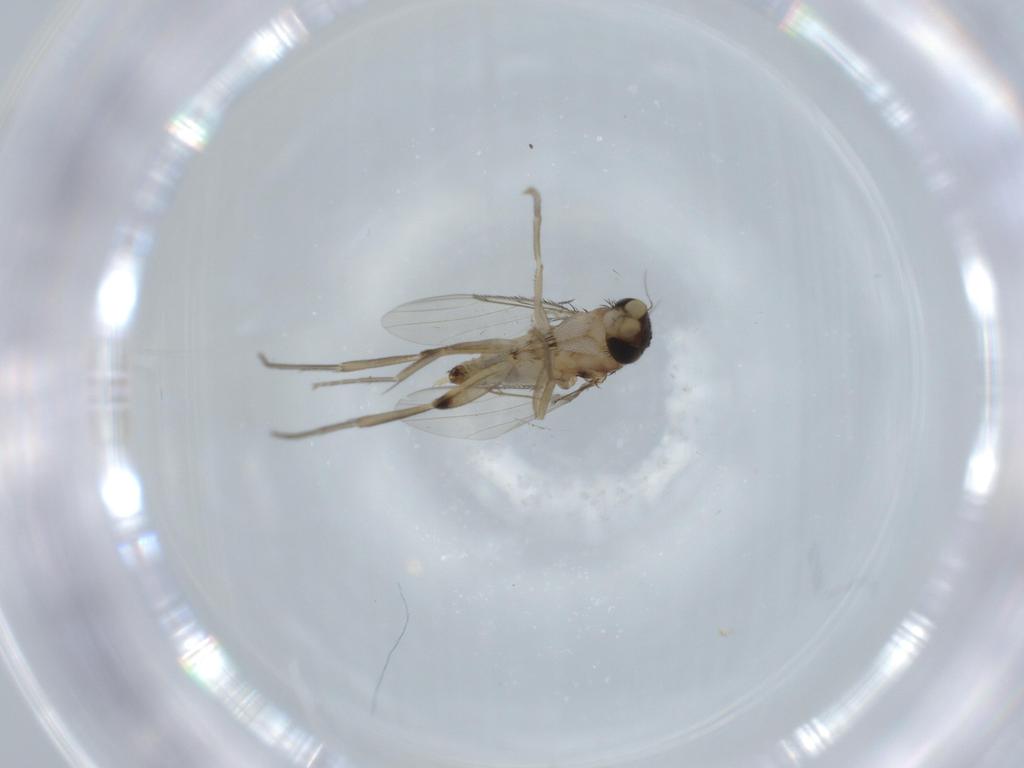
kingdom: Animalia
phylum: Arthropoda
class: Insecta
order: Diptera
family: Phoridae
